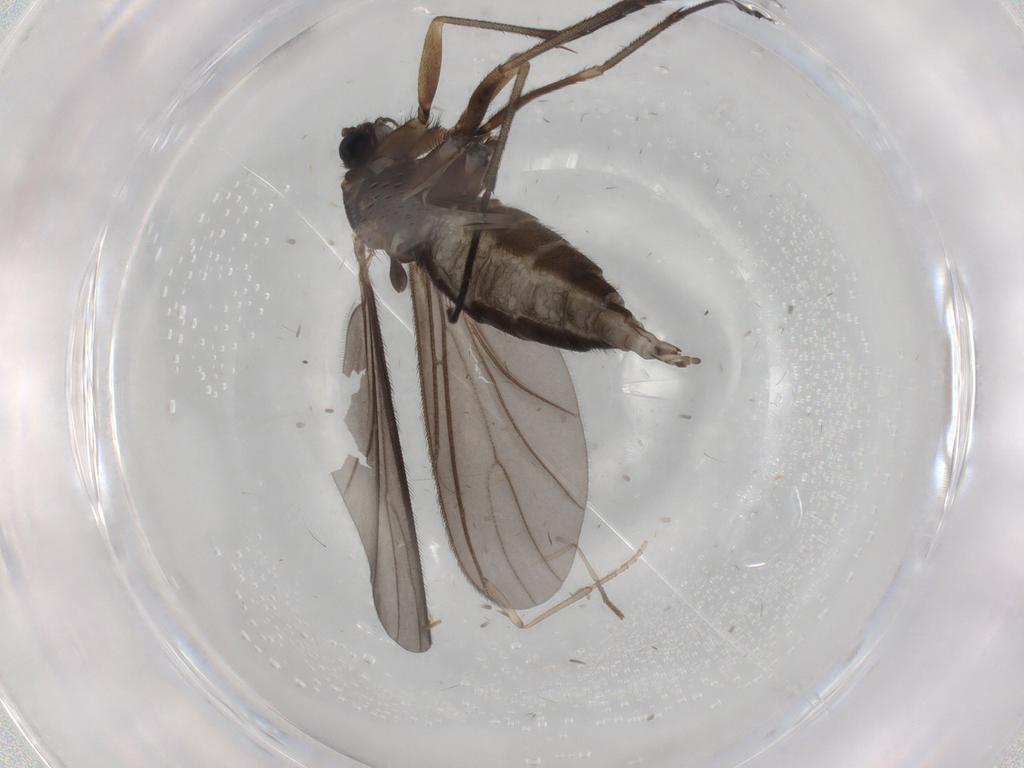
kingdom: Animalia
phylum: Arthropoda
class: Insecta
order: Diptera
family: Sciaridae
